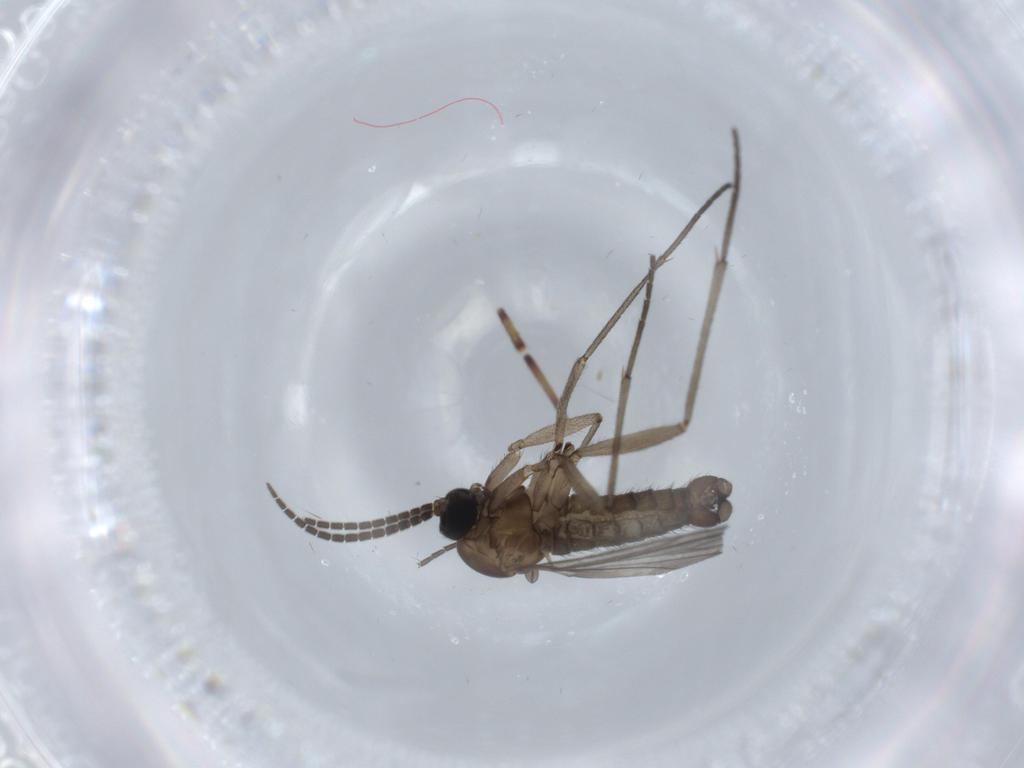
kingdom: Animalia
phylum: Arthropoda
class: Insecta
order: Diptera
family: Sciaridae
